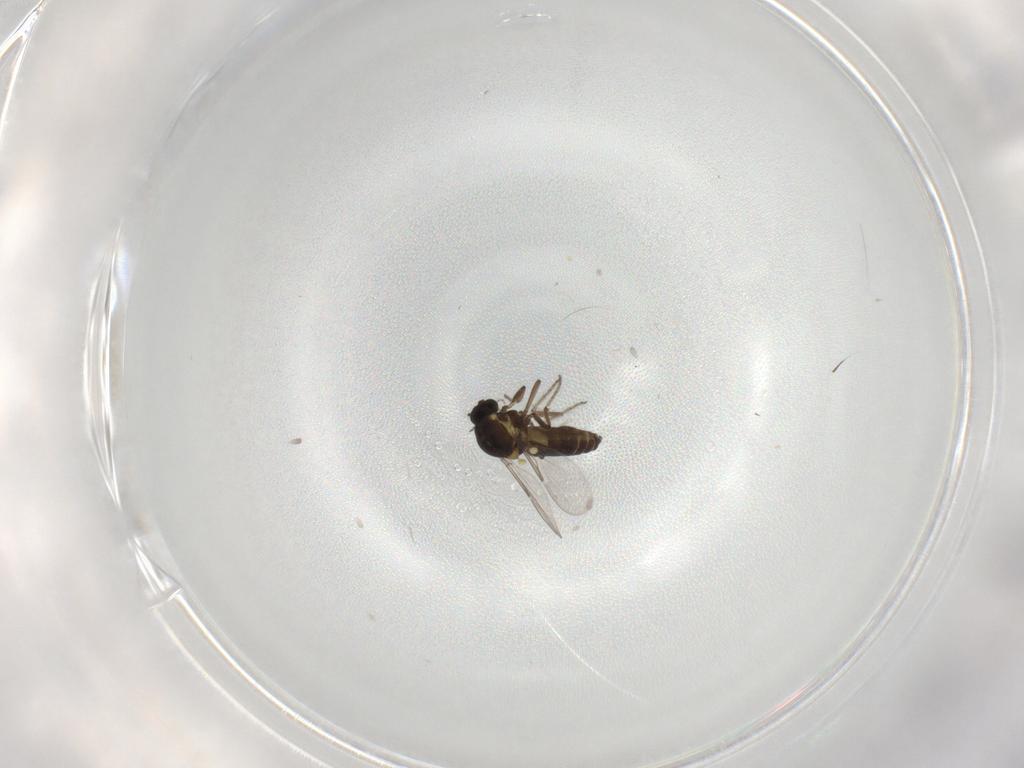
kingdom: Animalia
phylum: Arthropoda
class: Insecta
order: Diptera
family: Ceratopogonidae
